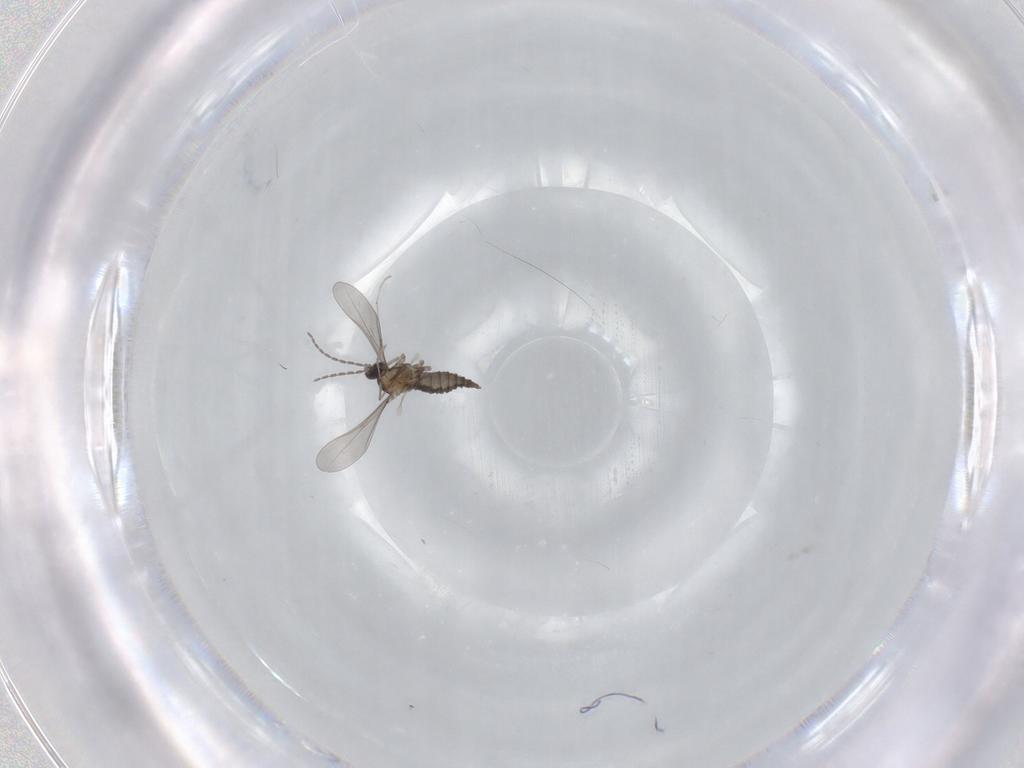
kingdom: Animalia
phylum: Arthropoda
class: Insecta
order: Diptera
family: Cecidomyiidae
